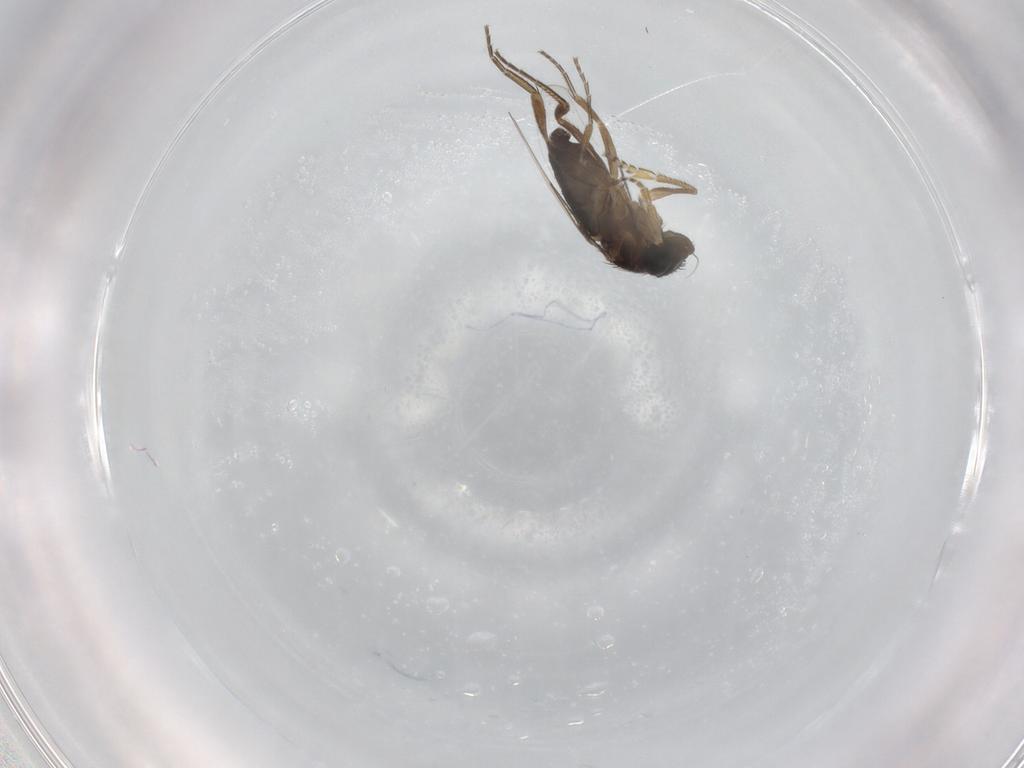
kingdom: Animalia
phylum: Arthropoda
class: Insecta
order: Diptera
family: Phoridae
